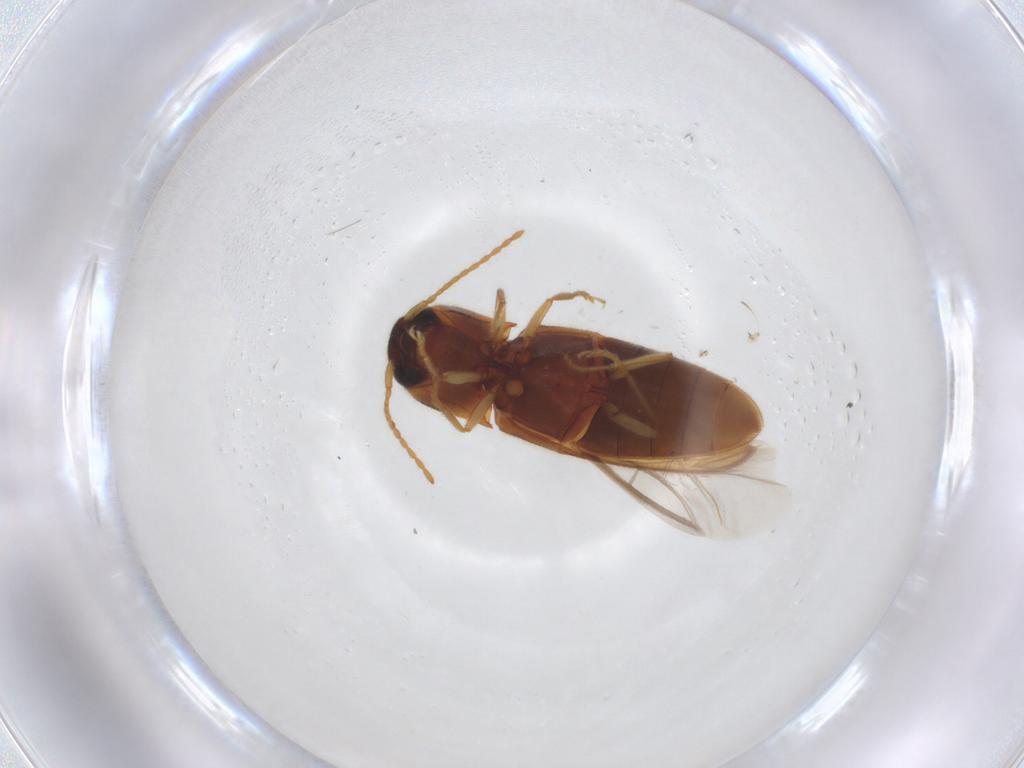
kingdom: Animalia
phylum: Arthropoda
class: Insecta
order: Coleoptera
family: Elateridae
